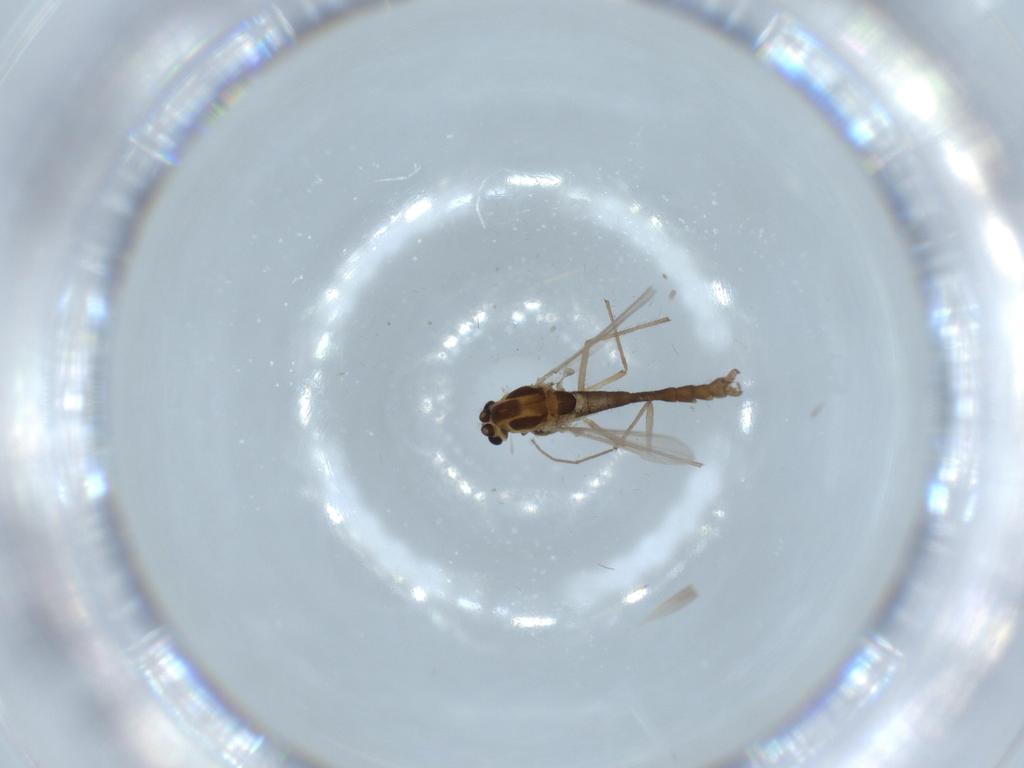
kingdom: Animalia
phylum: Arthropoda
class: Insecta
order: Diptera
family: Chironomidae
